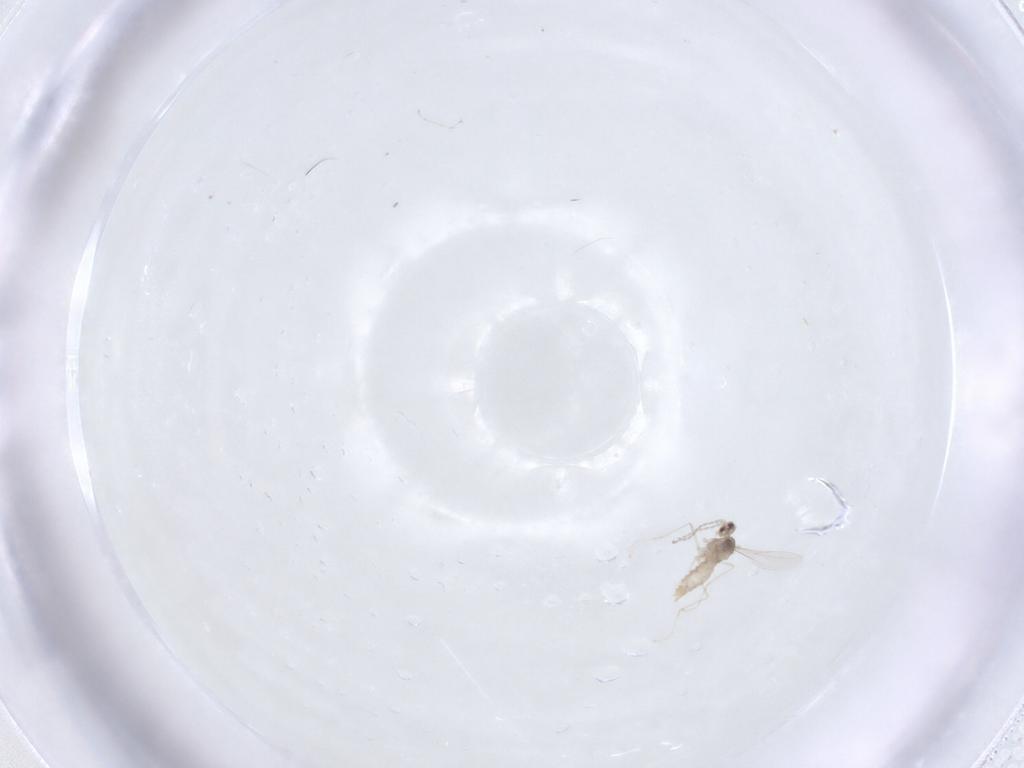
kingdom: Animalia
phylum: Arthropoda
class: Insecta
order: Diptera
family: Cecidomyiidae
